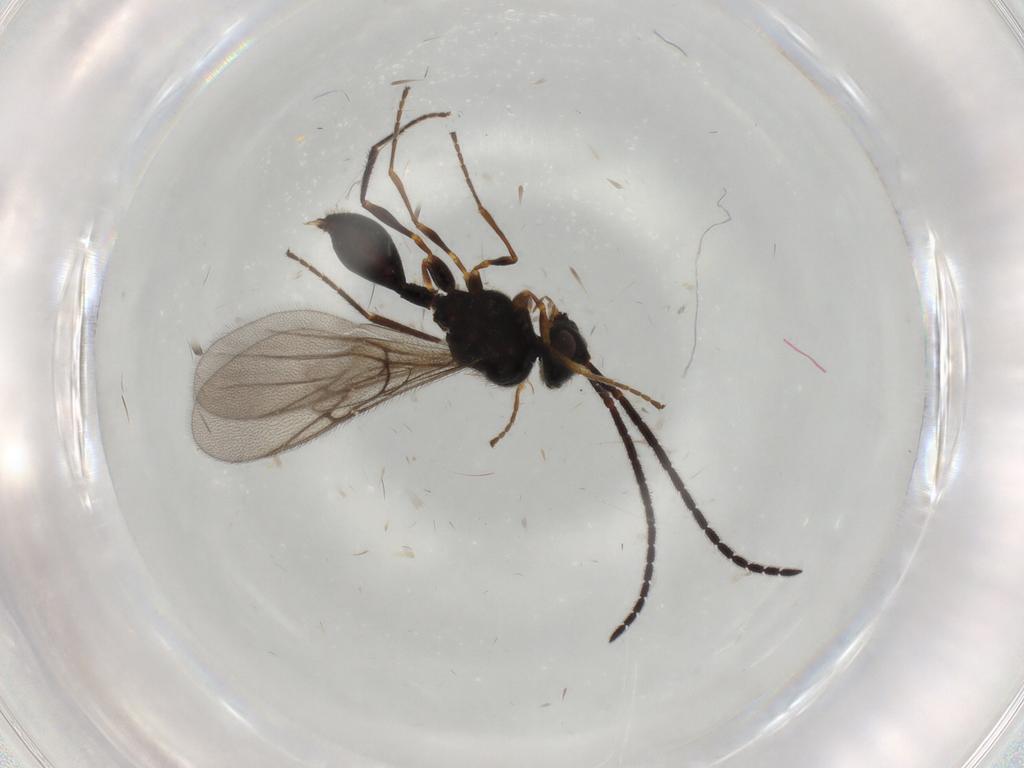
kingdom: Animalia
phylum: Arthropoda
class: Insecta
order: Hymenoptera
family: Diapriidae
